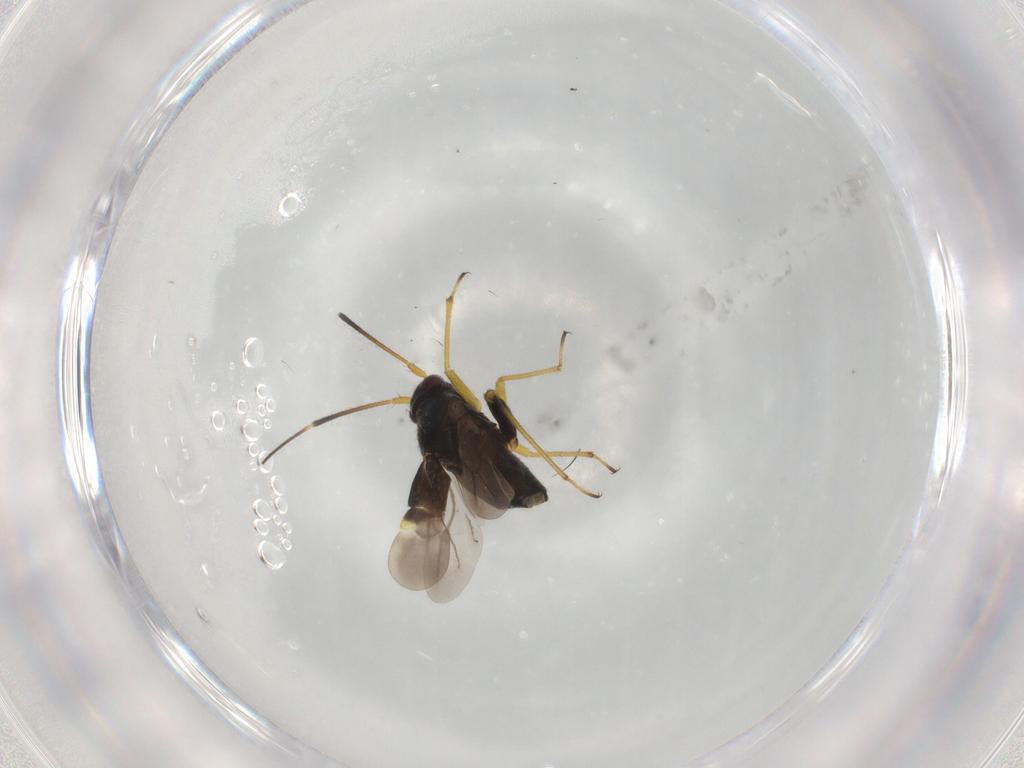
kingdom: Animalia
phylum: Arthropoda
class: Insecta
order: Hemiptera
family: Miridae
